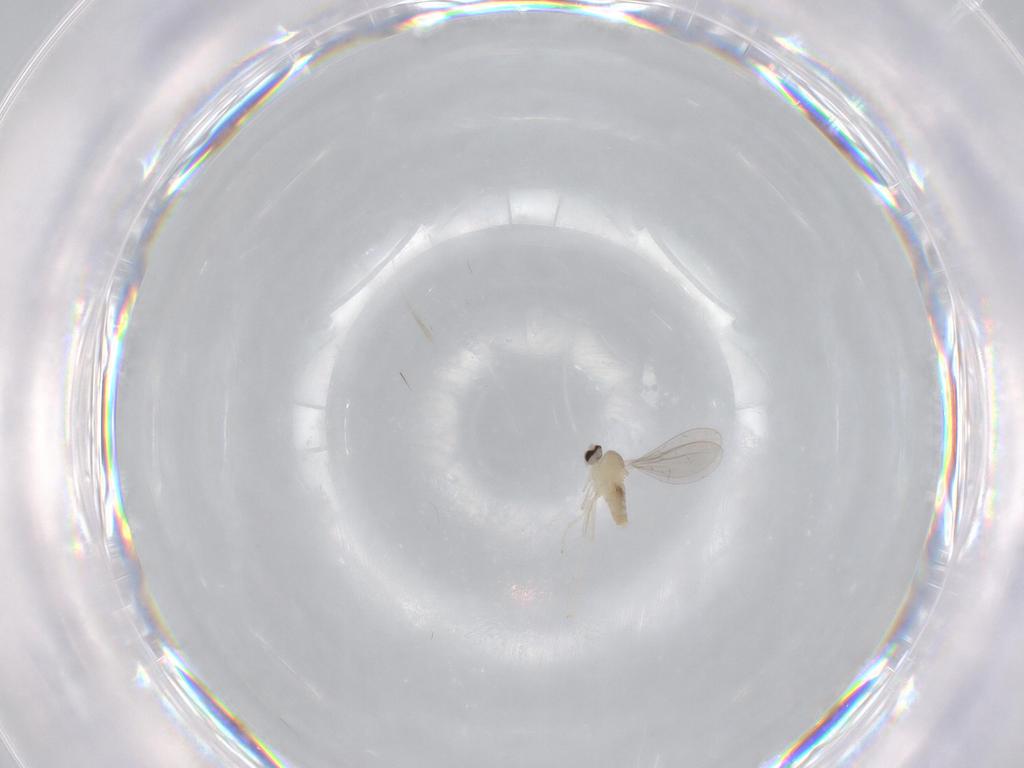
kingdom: Animalia
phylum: Arthropoda
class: Insecta
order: Diptera
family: Cecidomyiidae
